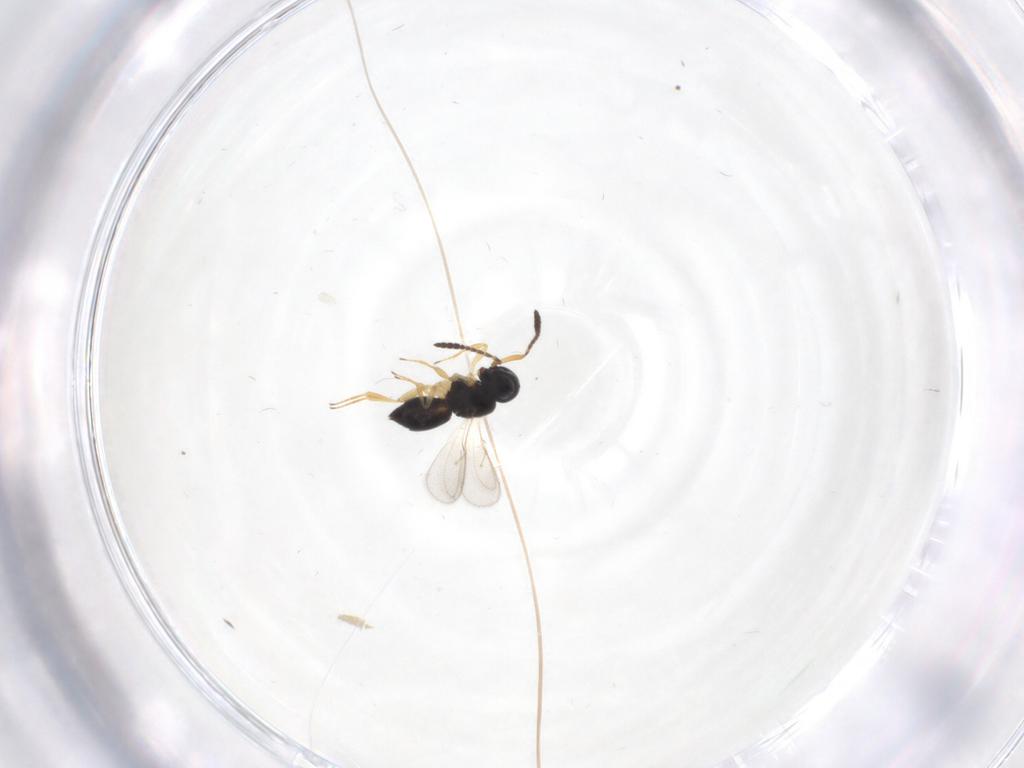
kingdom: Animalia
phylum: Arthropoda
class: Insecta
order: Hymenoptera
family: Scelionidae
